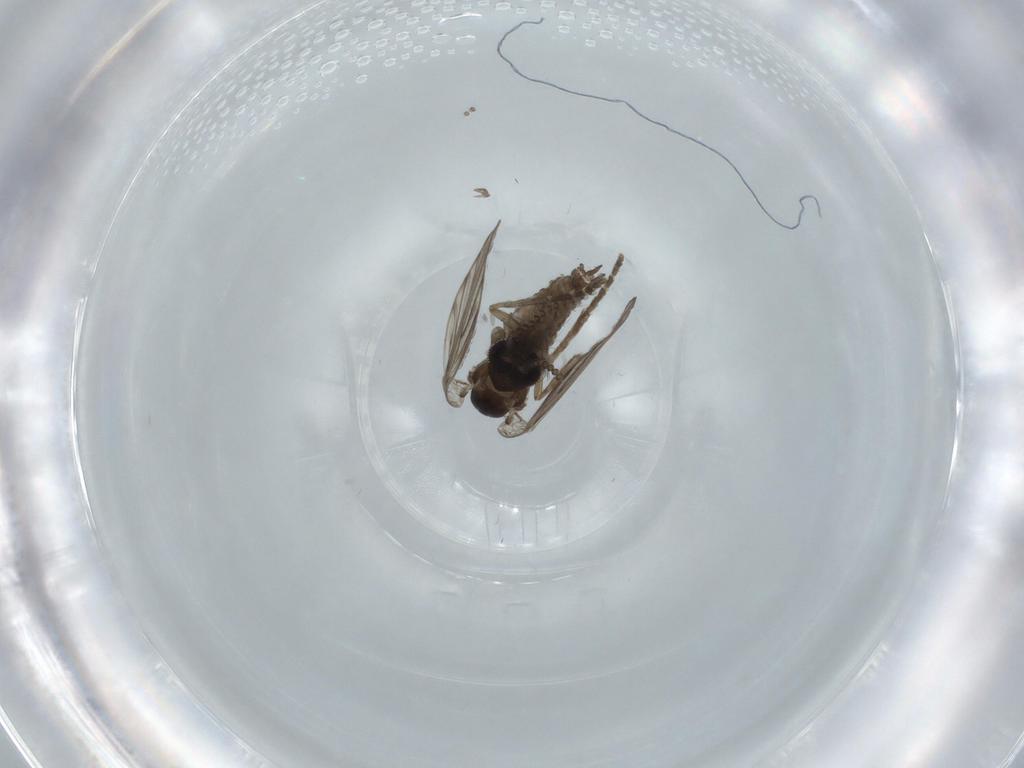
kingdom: Animalia
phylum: Arthropoda
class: Insecta
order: Diptera
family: Psychodidae
